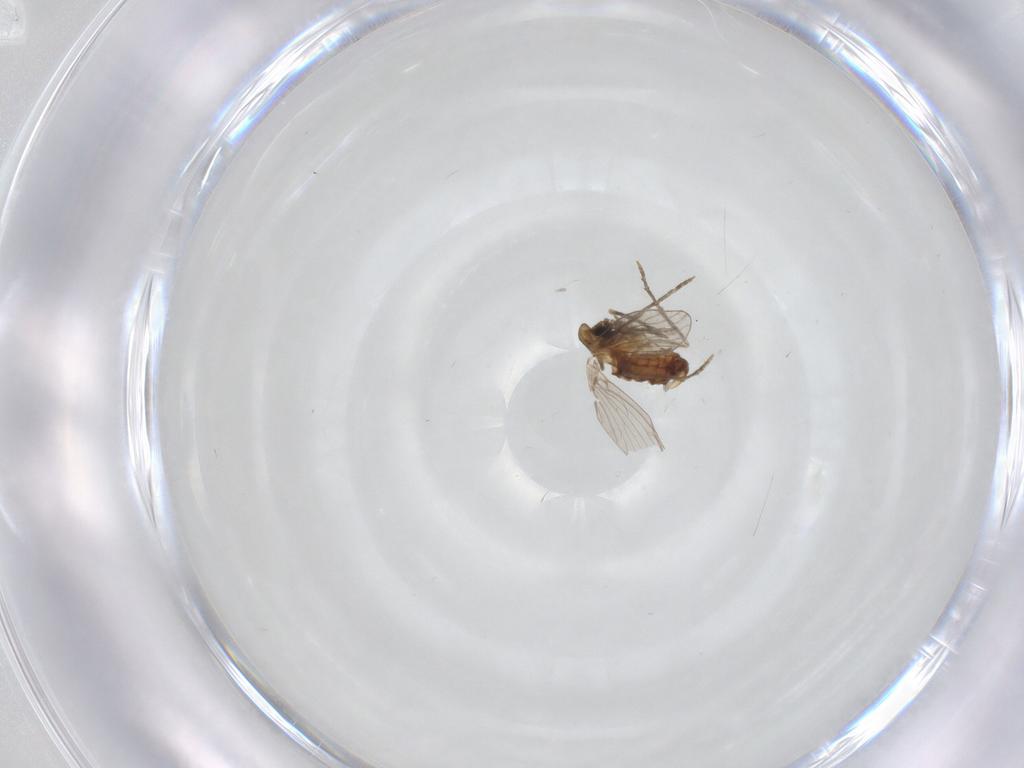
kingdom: Animalia
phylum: Arthropoda
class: Insecta
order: Diptera
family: Psychodidae
